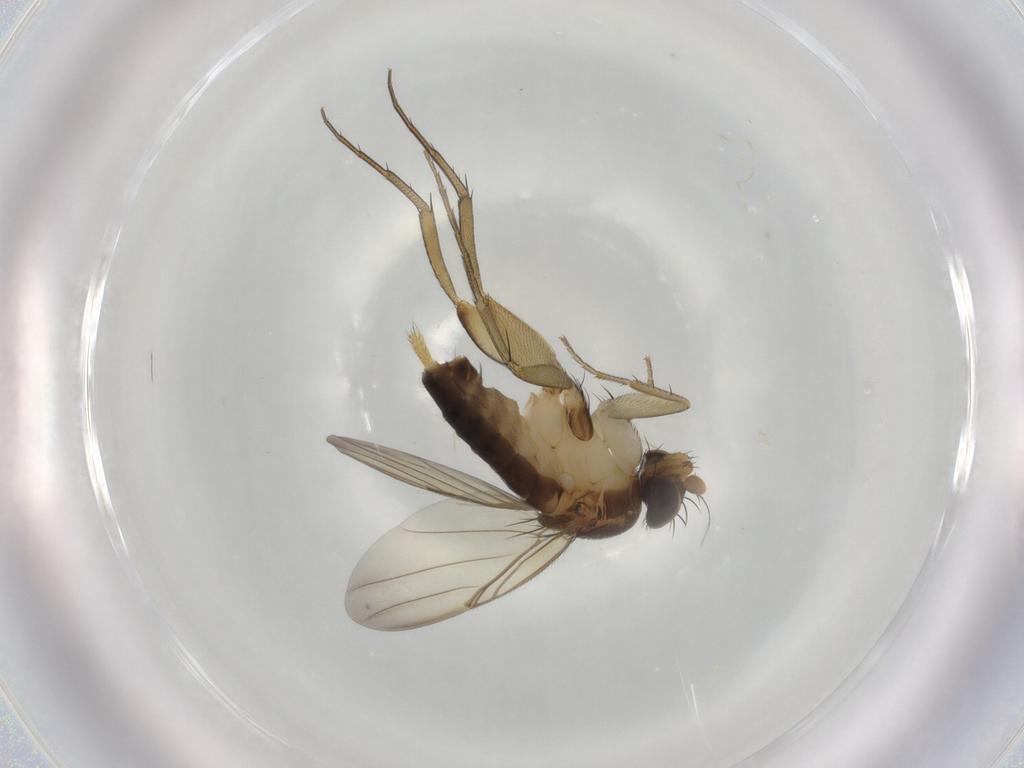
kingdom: Animalia
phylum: Arthropoda
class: Insecta
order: Diptera
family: Phoridae
